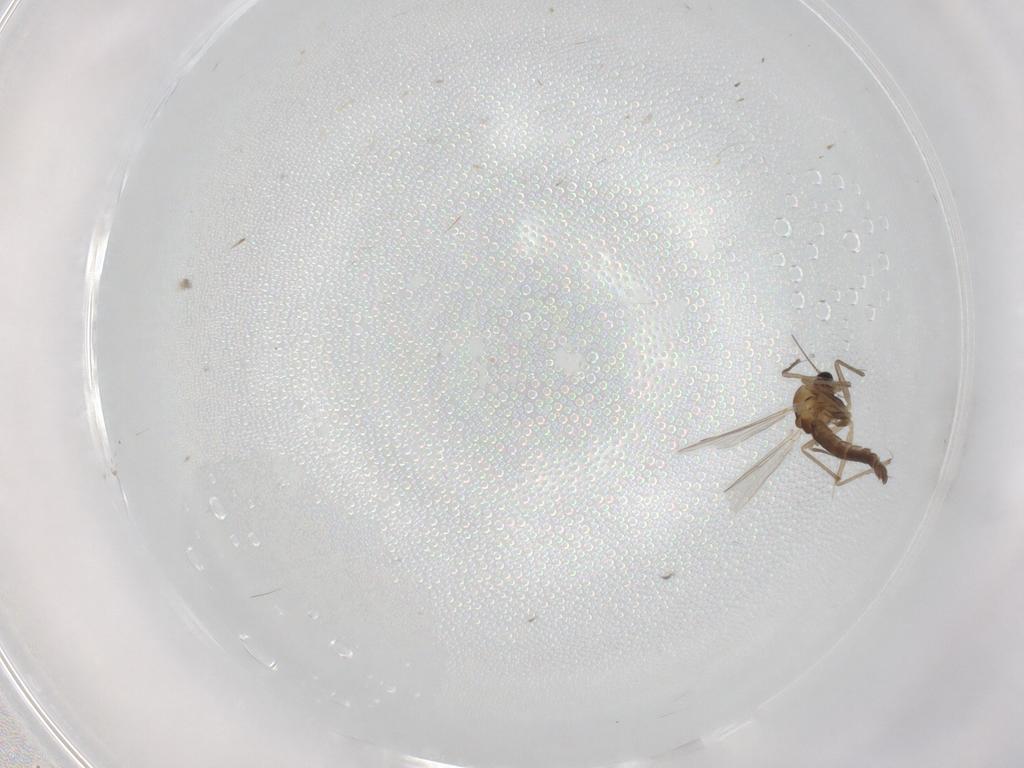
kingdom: Animalia
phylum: Arthropoda
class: Insecta
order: Diptera
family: Chironomidae
